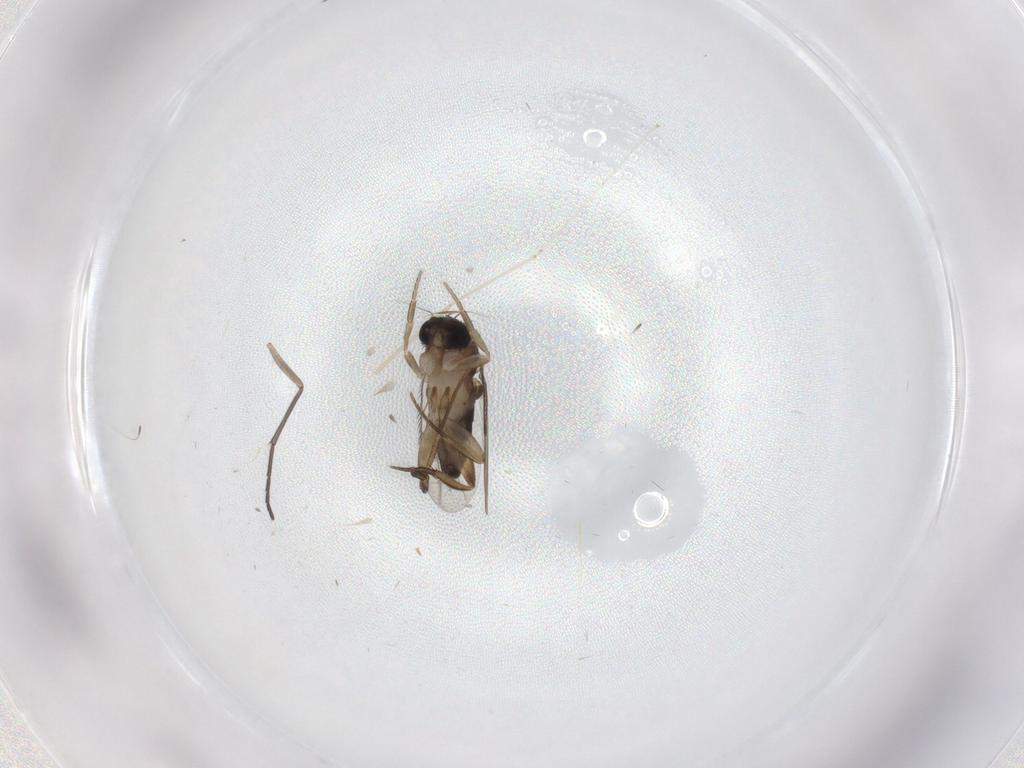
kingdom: Animalia
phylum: Arthropoda
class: Insecta
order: Diptera
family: Phoridae
